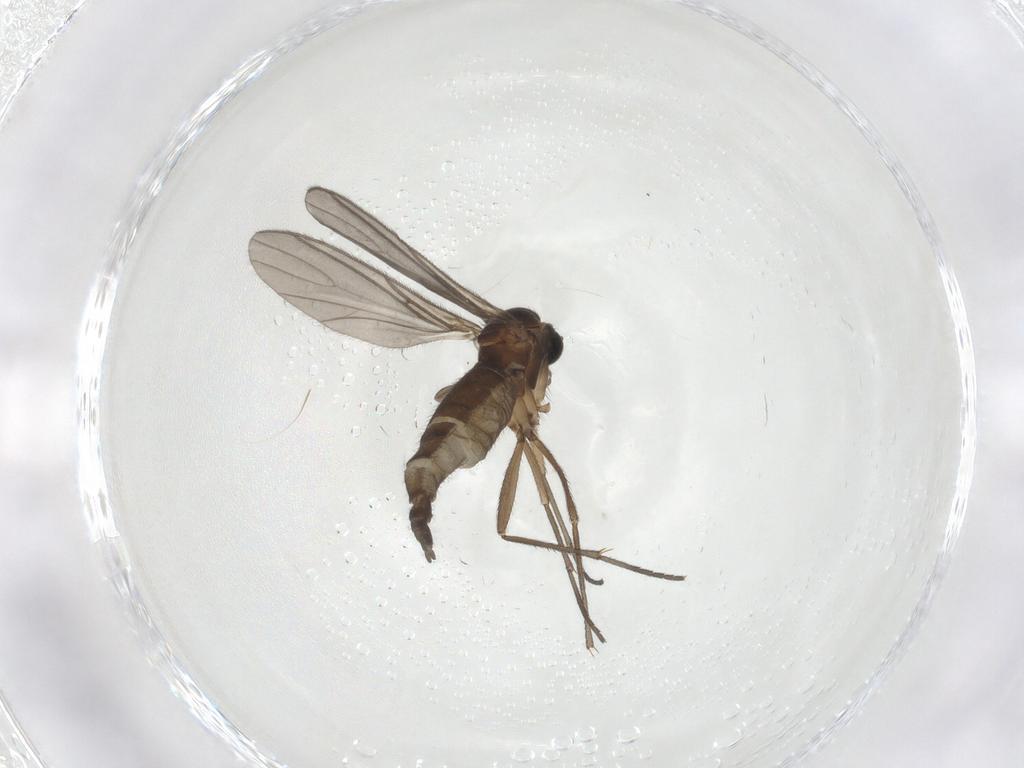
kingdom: Animalia
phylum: Arthropoda
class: Insecta
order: Diptera
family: Sciaridae
